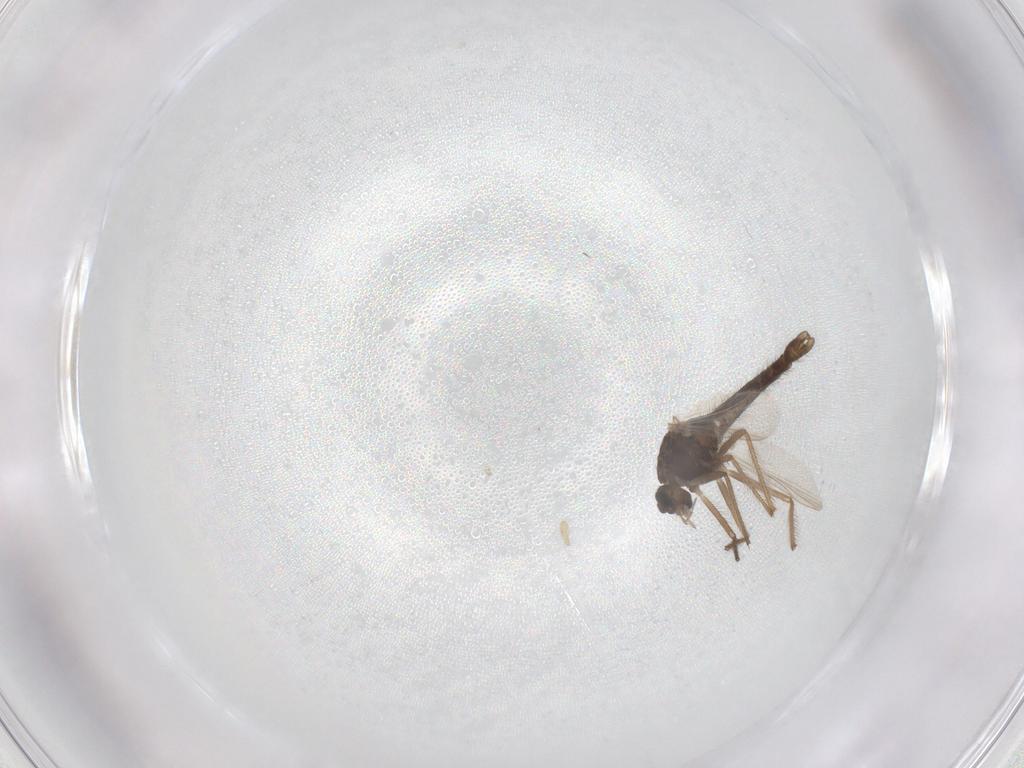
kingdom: Animalia
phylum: Arthropoda
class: Insecta
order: Diptera
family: Chironomidae
